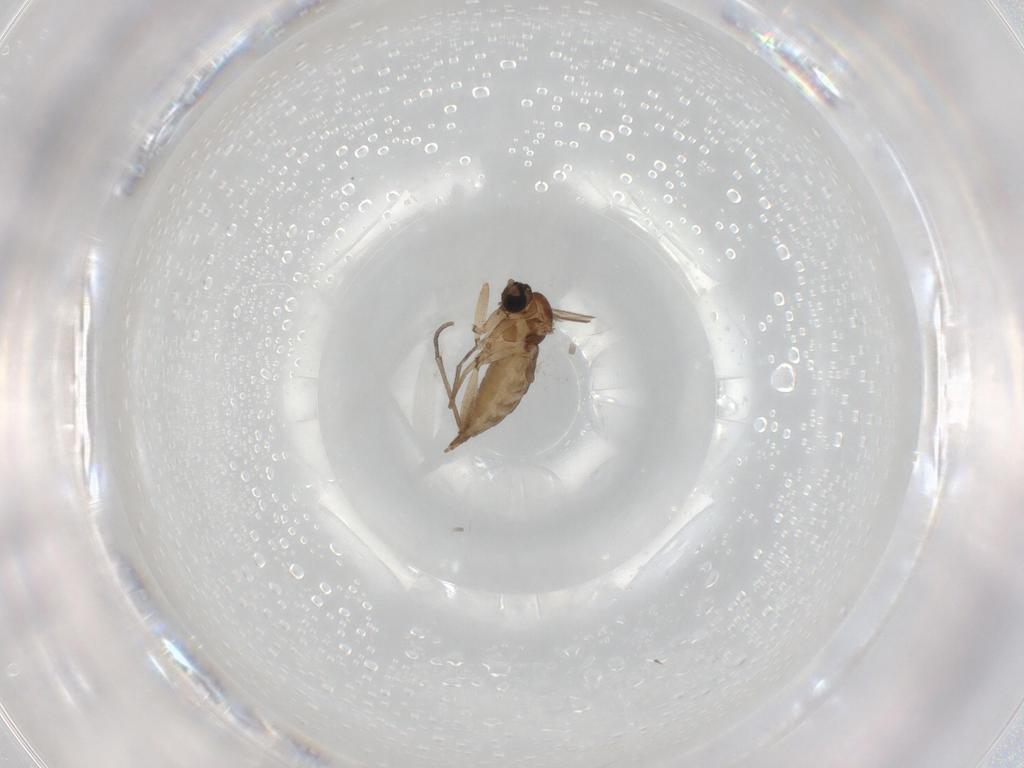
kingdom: Animalia
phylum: Arthropoda
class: Insecta
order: Diptera
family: Sciaridae
